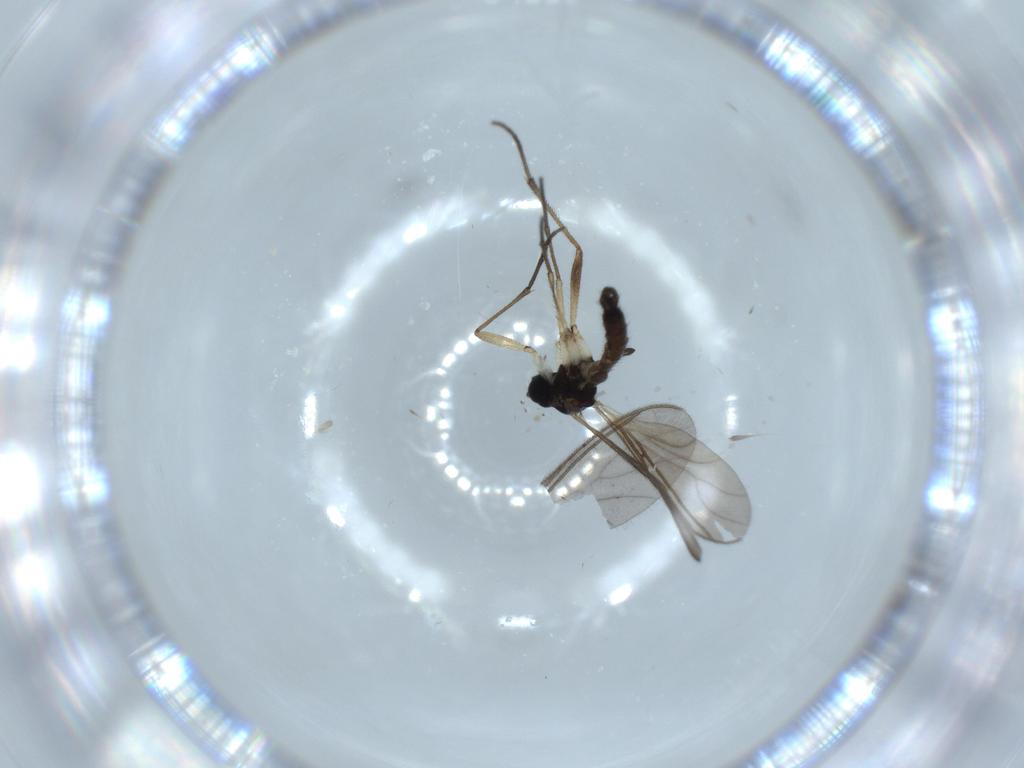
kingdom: Animalia
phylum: Arthropoda
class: Insecta
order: Diptera
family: Sciaridae
